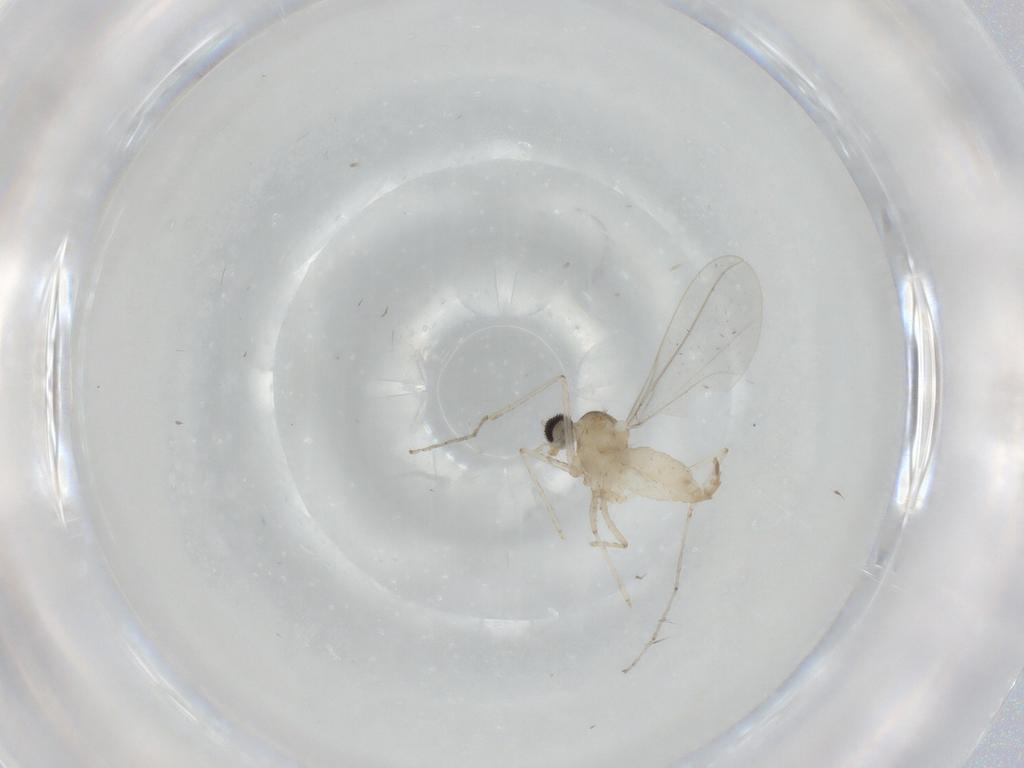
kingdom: Animalia
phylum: Arthropoda
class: Insecta
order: Diptera
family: Cecidomyiidae
